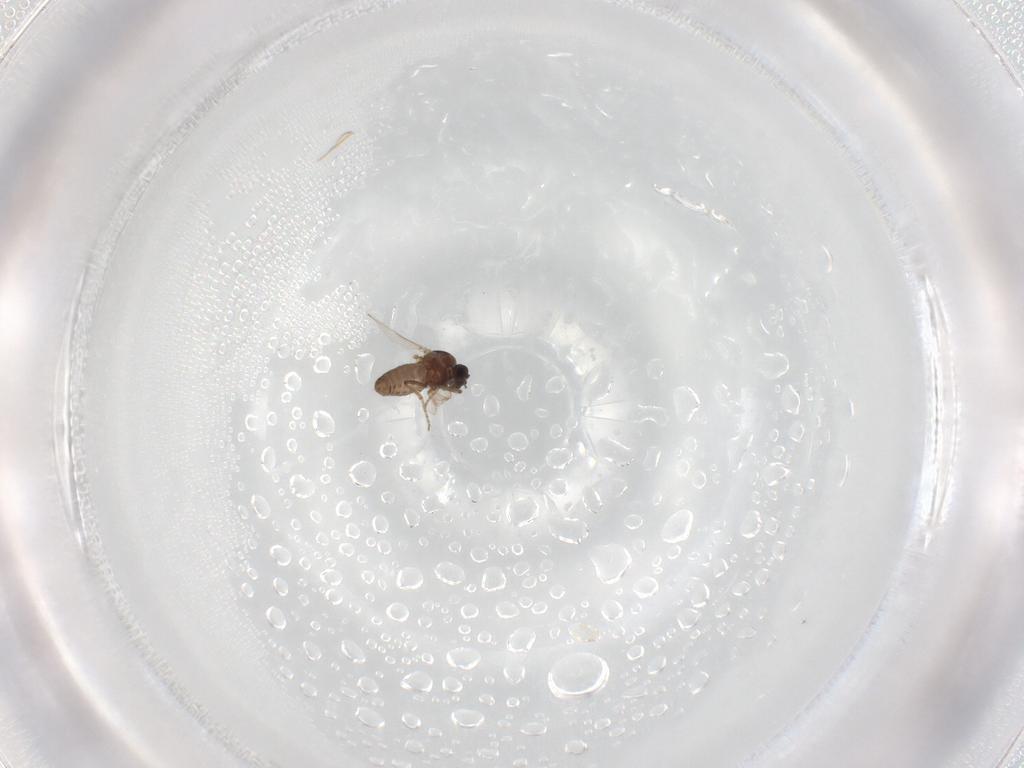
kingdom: Animalia
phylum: Arthropoda
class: Insecta
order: Diptera
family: Ceratopogonidae
